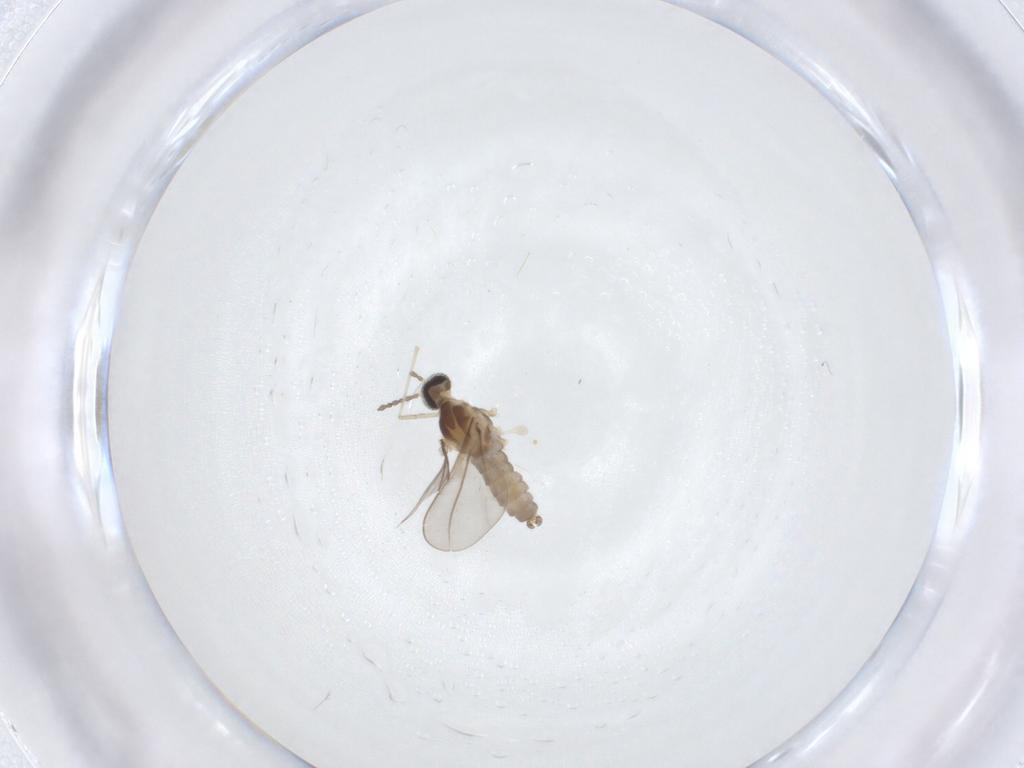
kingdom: Animalia
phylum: Arthropoda
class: Insecta
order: Diptera
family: Cecidomyiidae
